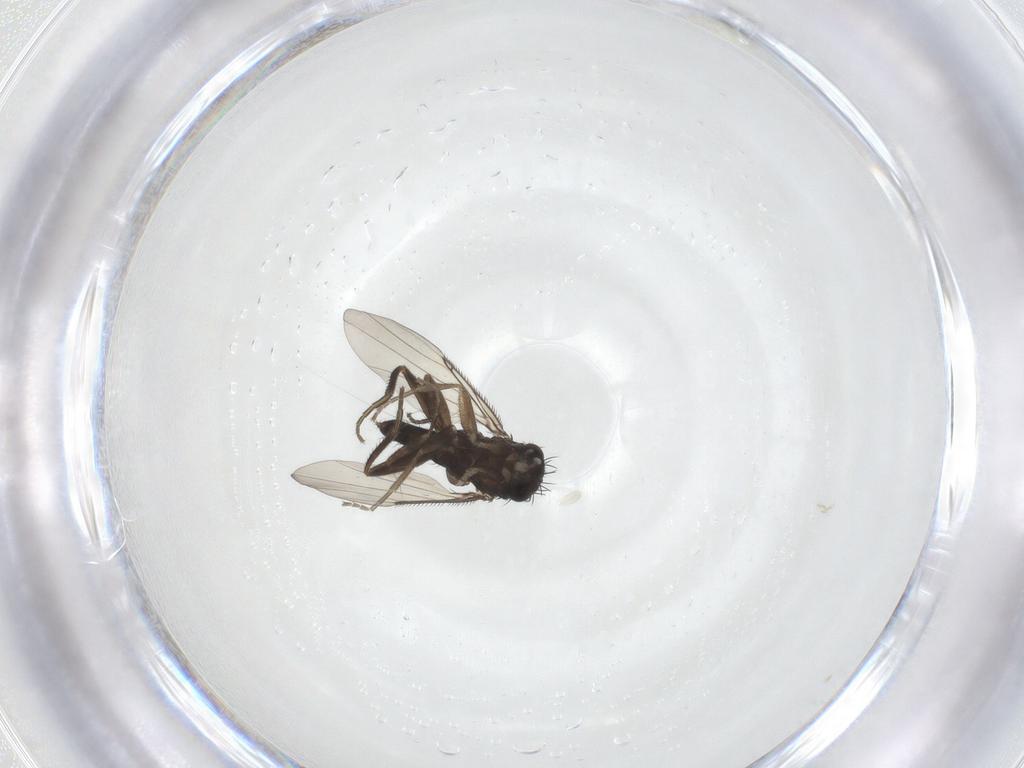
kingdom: Animalia
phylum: Arthropoda
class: Insecta
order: Diptera
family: Phoridae
